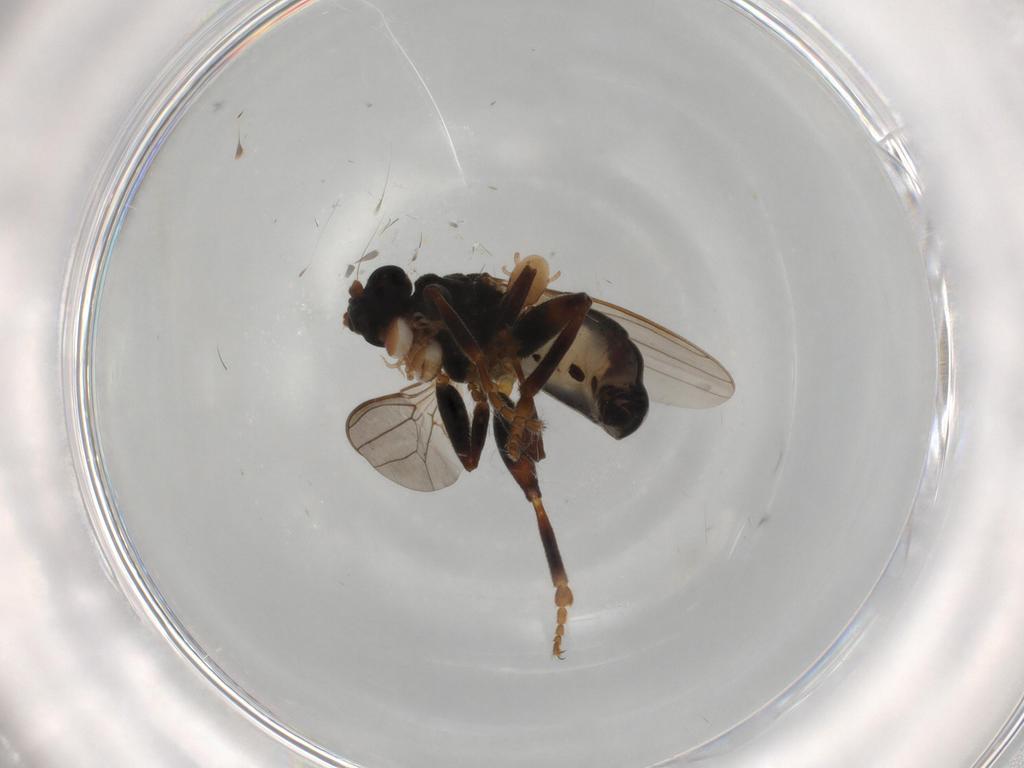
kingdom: Animalia
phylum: Arthropoda
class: Arachnida
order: Mesostigmata
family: Macrochelidae
